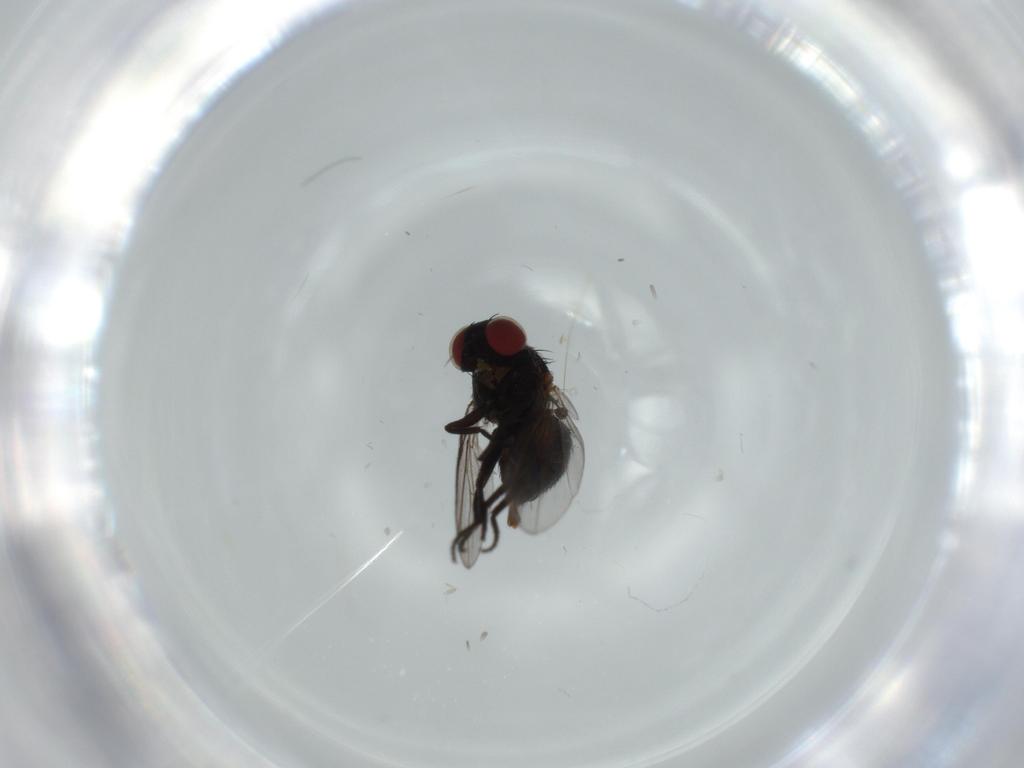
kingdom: Animalia
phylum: Arthropoda
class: Insecta
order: Diptera
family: Agromyzidae
